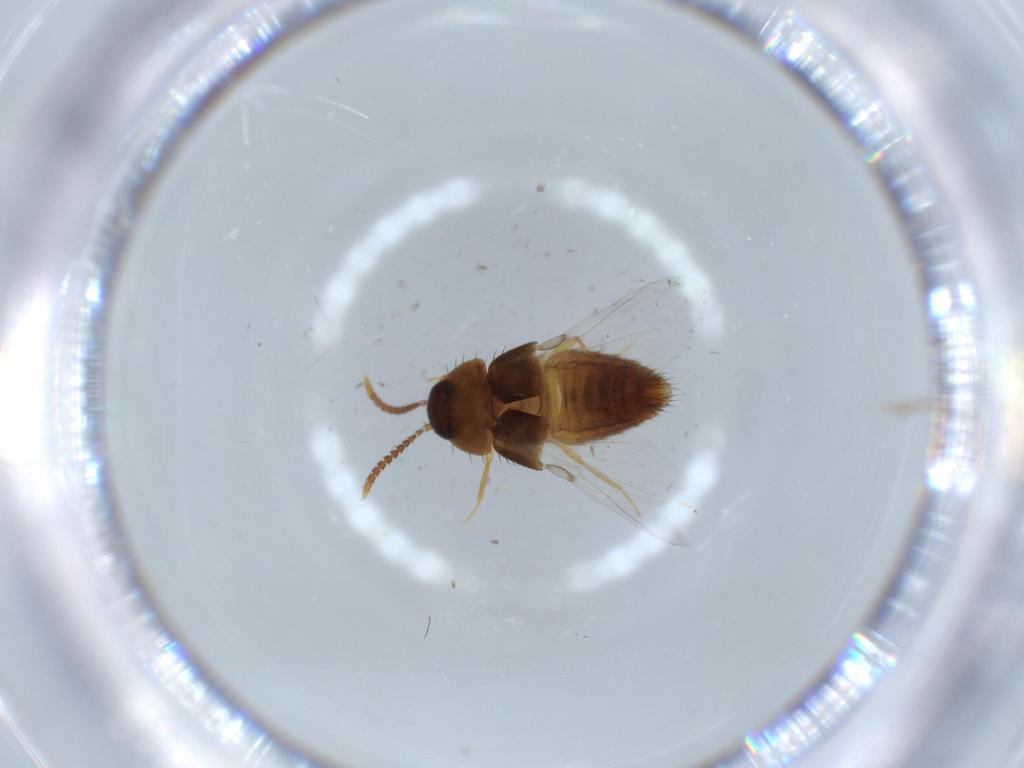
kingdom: Animalia
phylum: Arthropoda
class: Insecta
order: Coleoptera
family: Staphylinidae
